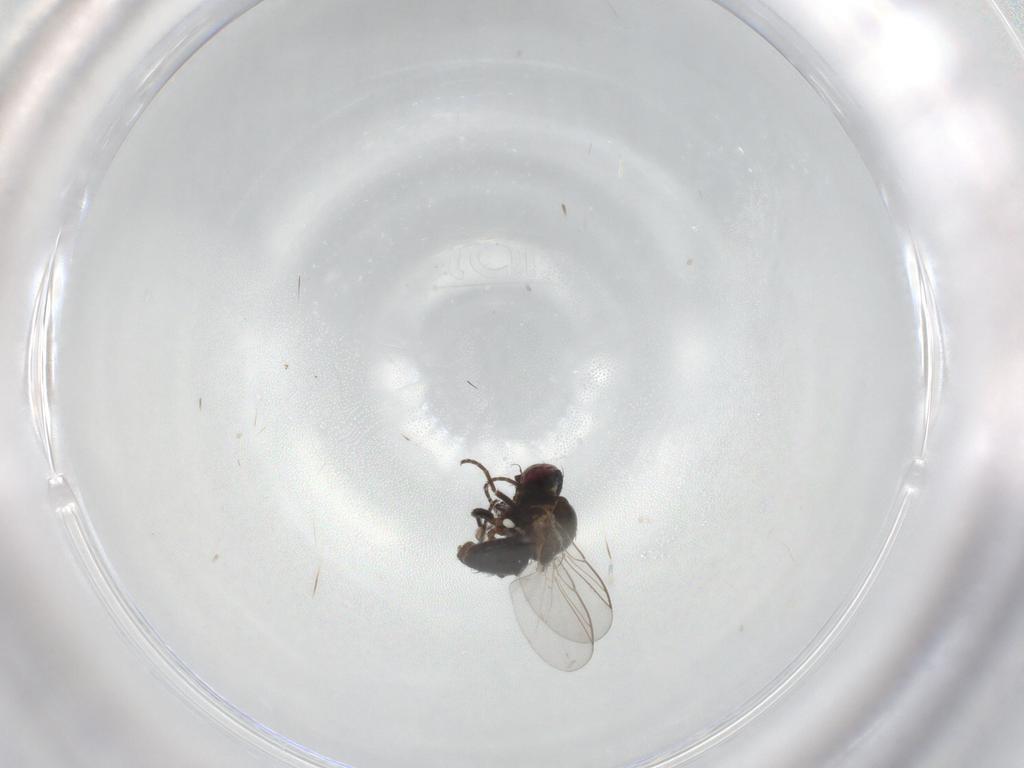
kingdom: Animalia
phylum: Arthropoda
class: Insecta
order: Diptera
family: Agromyzidae
